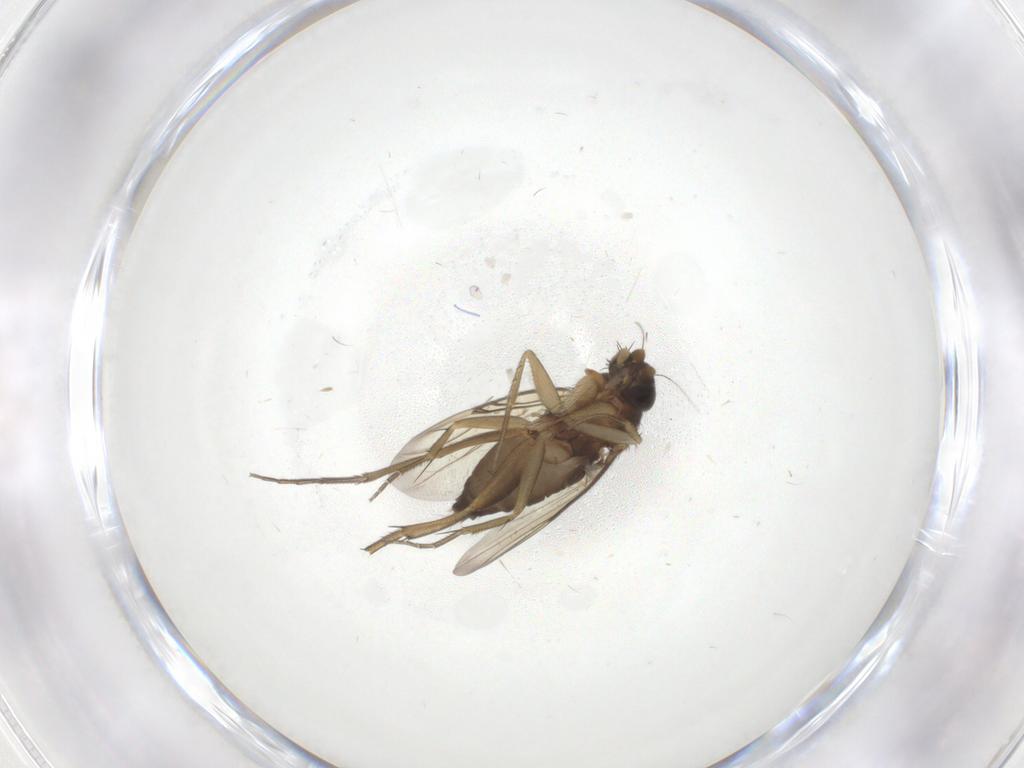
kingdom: Animalia
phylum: Arthropoda
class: Insecta
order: Diptera
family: Phoridae
